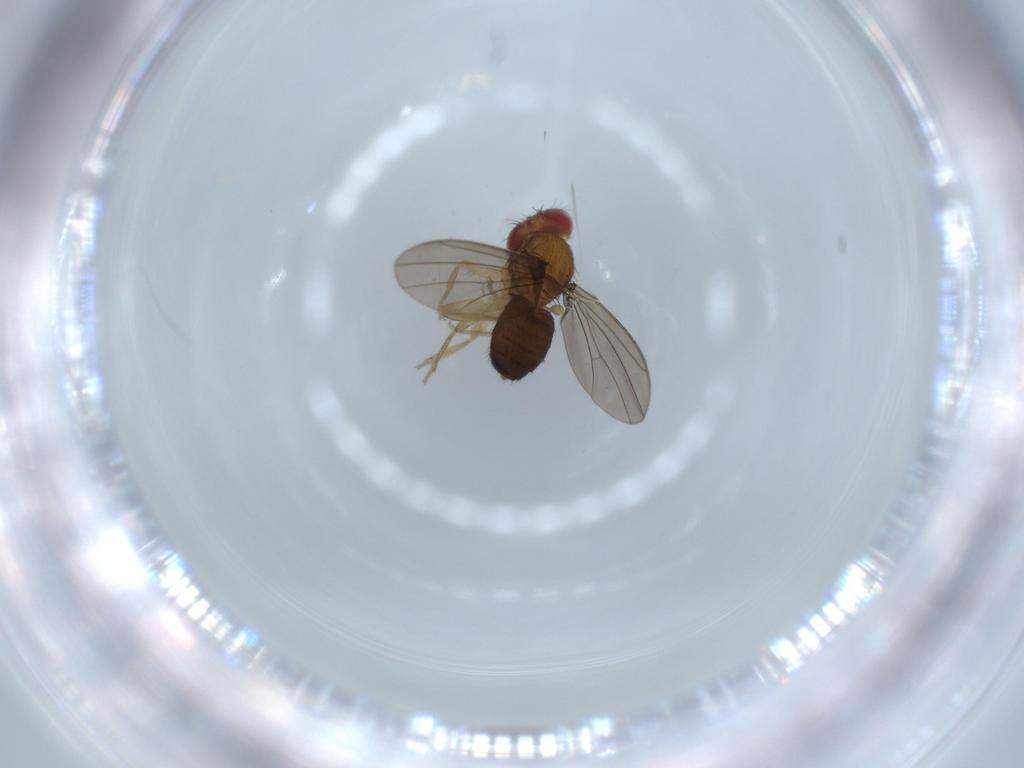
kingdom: Animalia
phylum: Arthropoda
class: Insecta
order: Diptera
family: Drosophilidae
